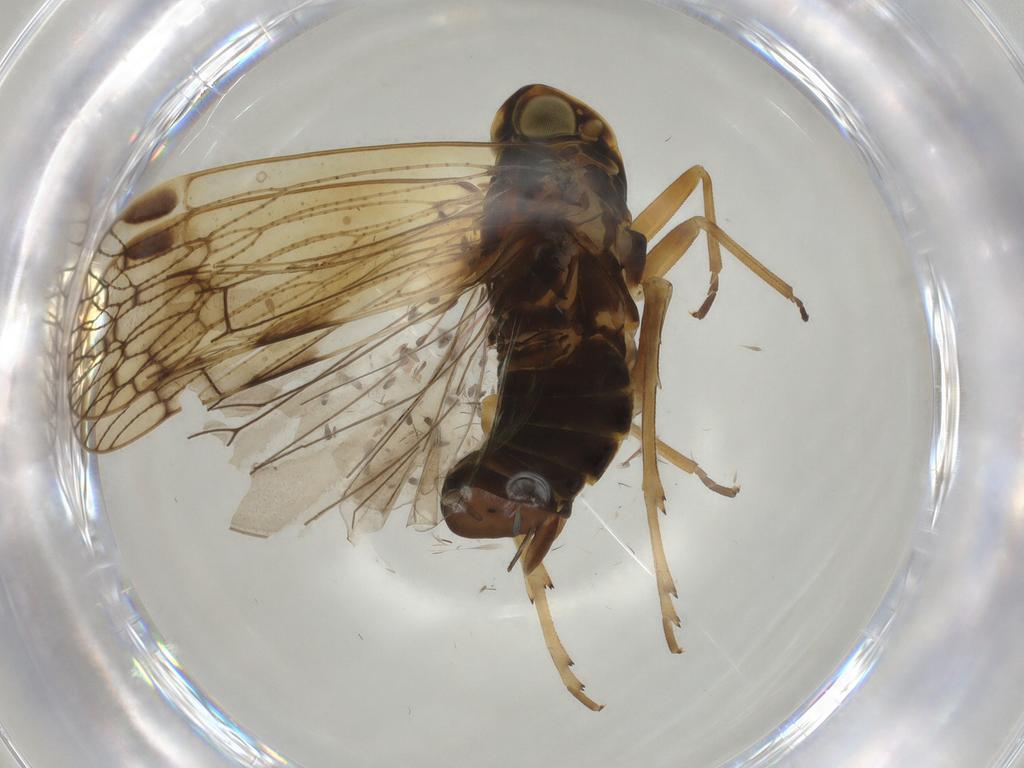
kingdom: Animalia
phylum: Arthropoda
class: Insecta
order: Hemiptera
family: Cixiidae
